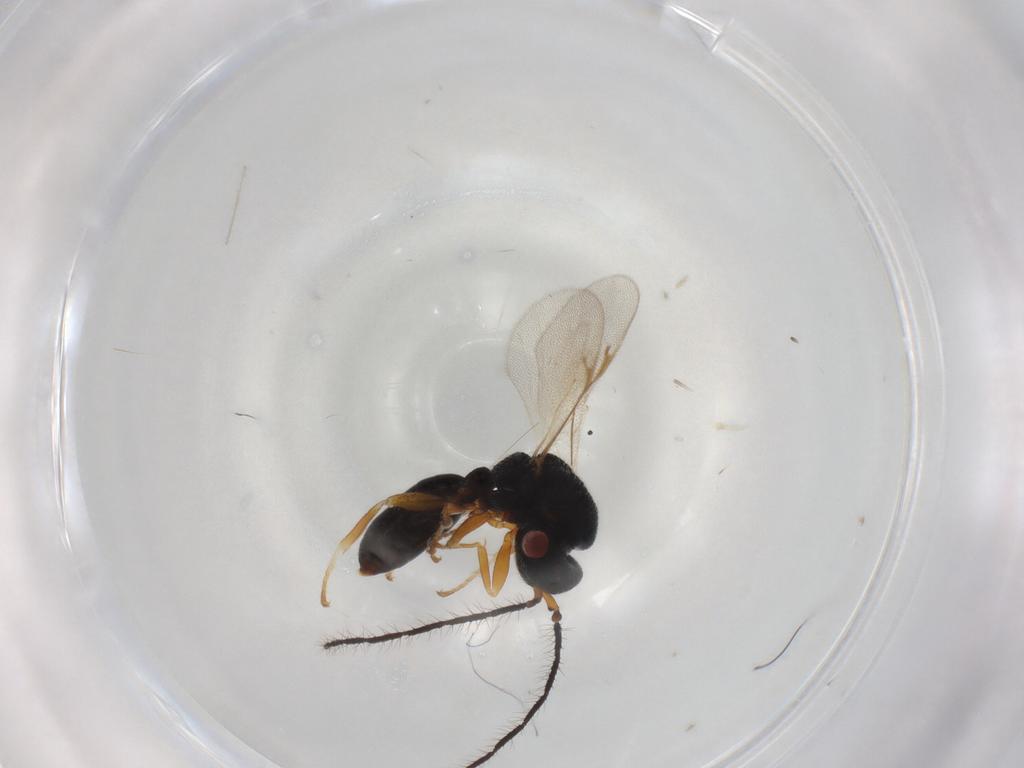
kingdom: Animalia
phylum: Arthropoda
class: Insecta
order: Hymenoptera
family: Eurytomidae
